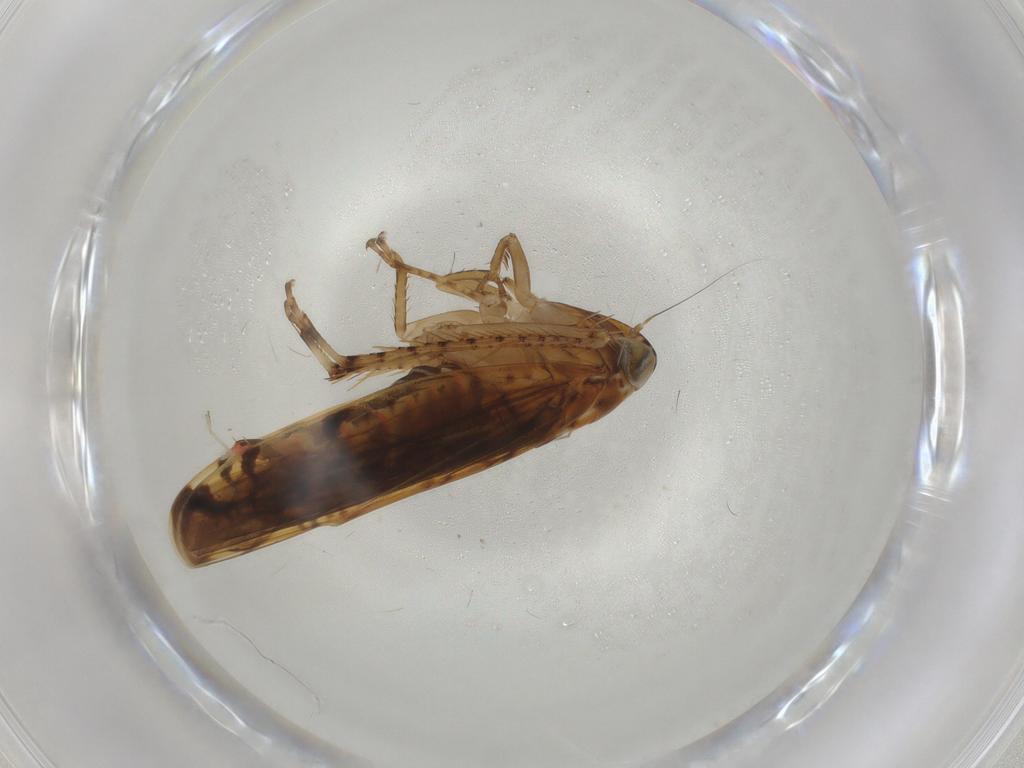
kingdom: Animalia
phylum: Arthropoda
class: Insecta
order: Hemiptera
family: Cicadellidae
